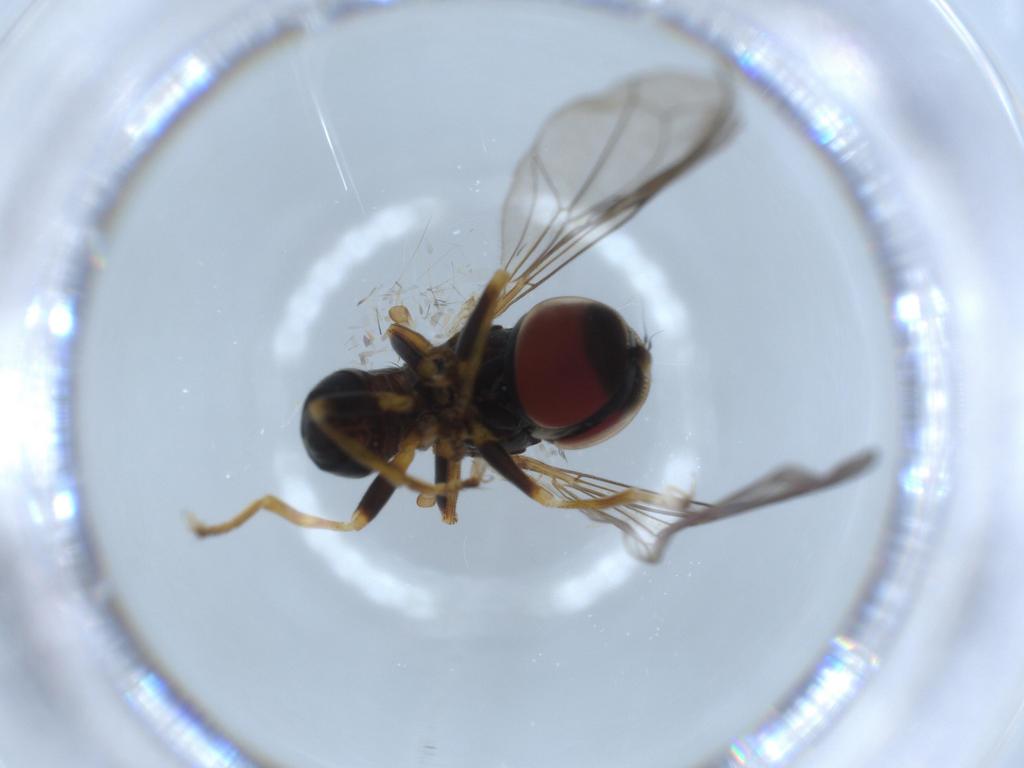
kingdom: Animalia
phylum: Arthropoda
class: Insecta
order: Diptera
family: Pipunculidae
